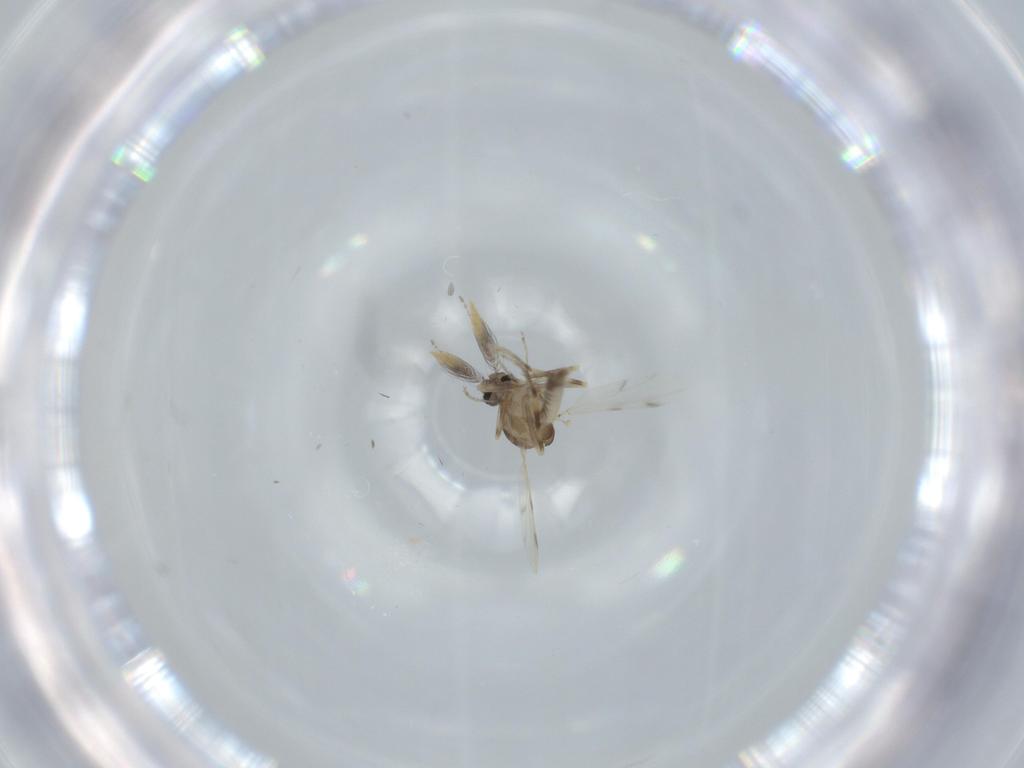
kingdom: Animalia
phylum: Arthropoda
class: Insecta
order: Diptera
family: Ceratopogonidae
